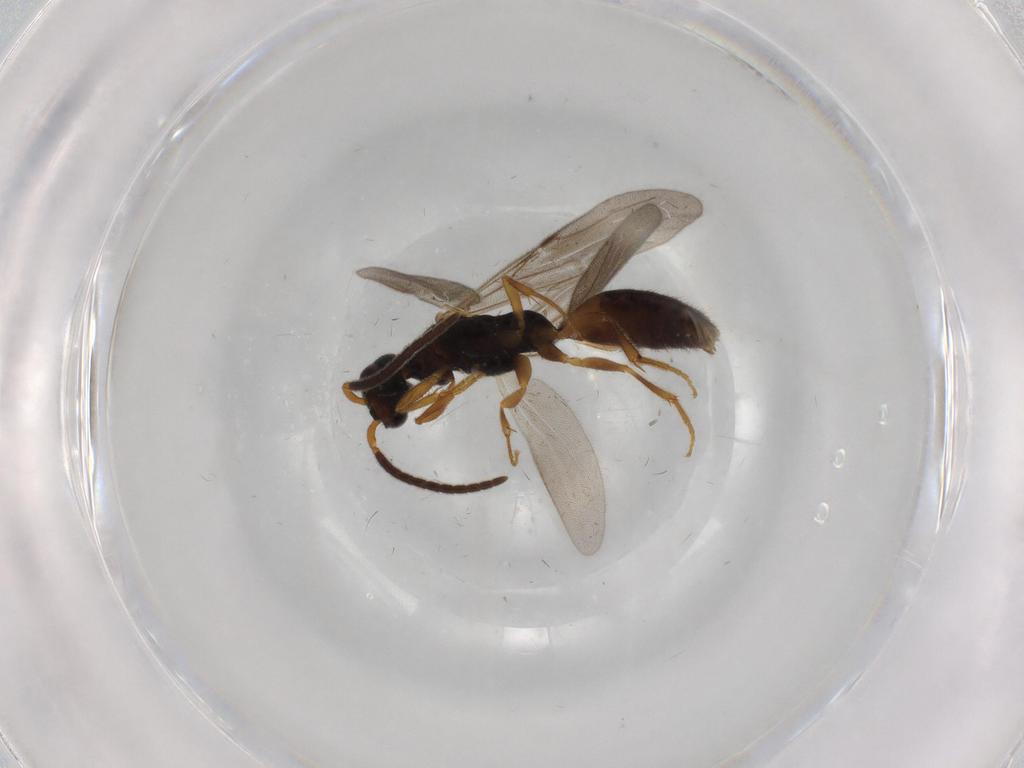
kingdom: Animalia
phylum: Arthropoda
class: Insecta
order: Hymenoptera
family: Bethylidae
